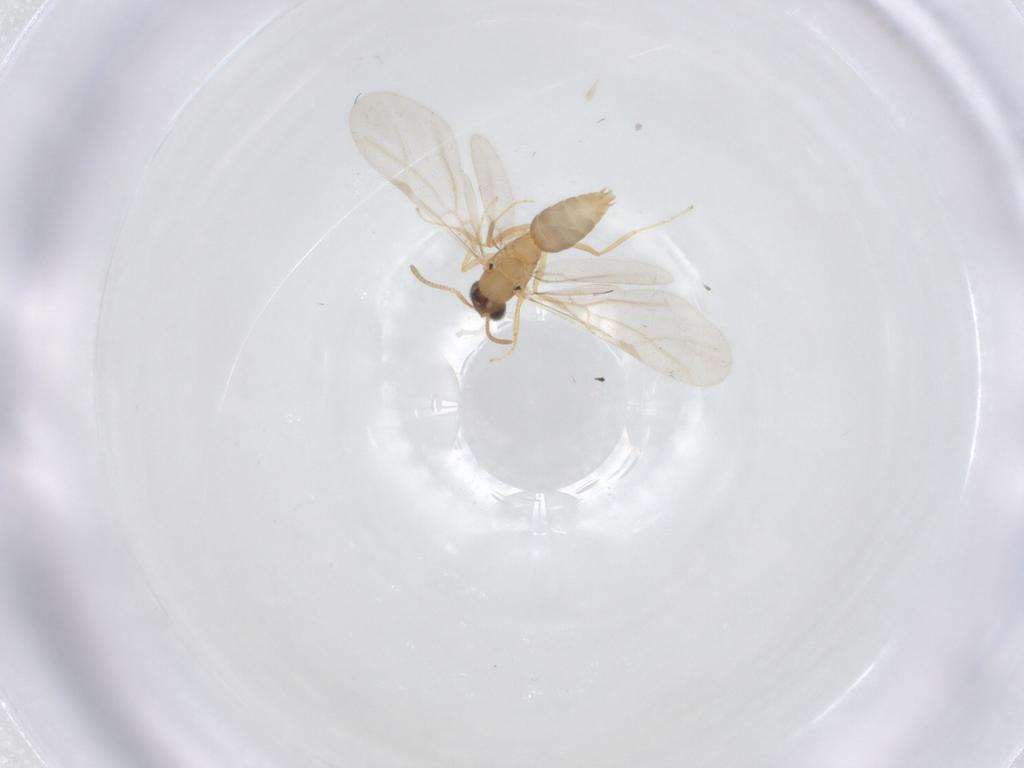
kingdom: Animalia
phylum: Arthropoda
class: Insecta
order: Hymenoptera
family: Formicidae
